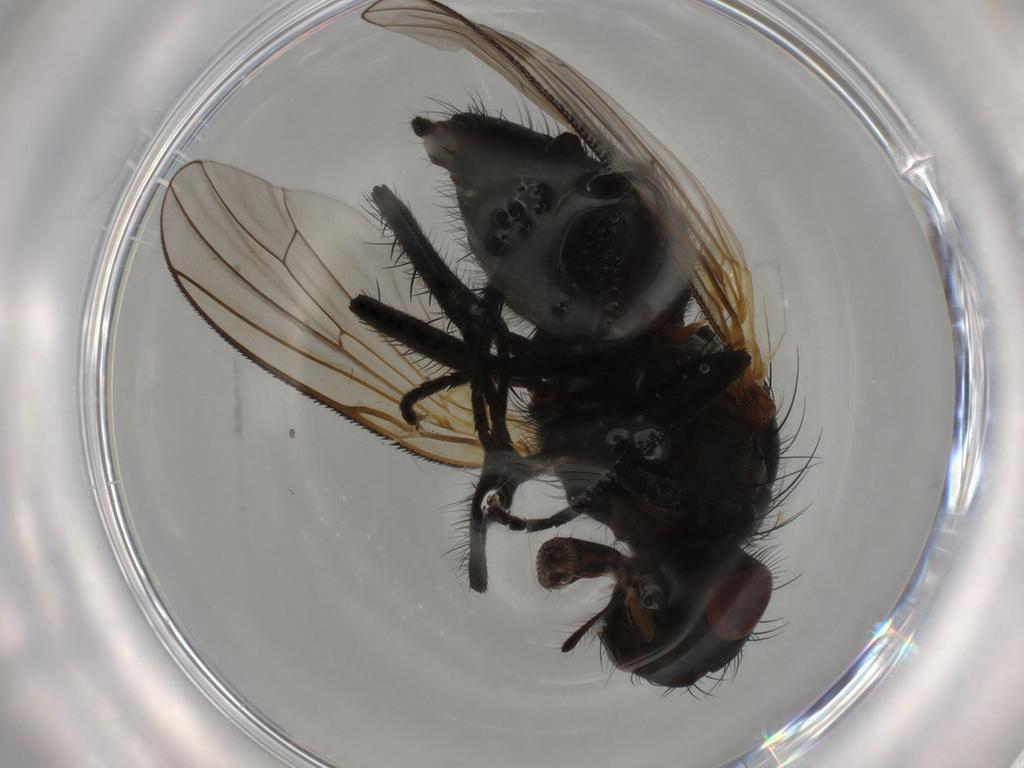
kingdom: Animalia
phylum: Arthropoda
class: Insecta
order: Diptera
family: Anthomyiidae
